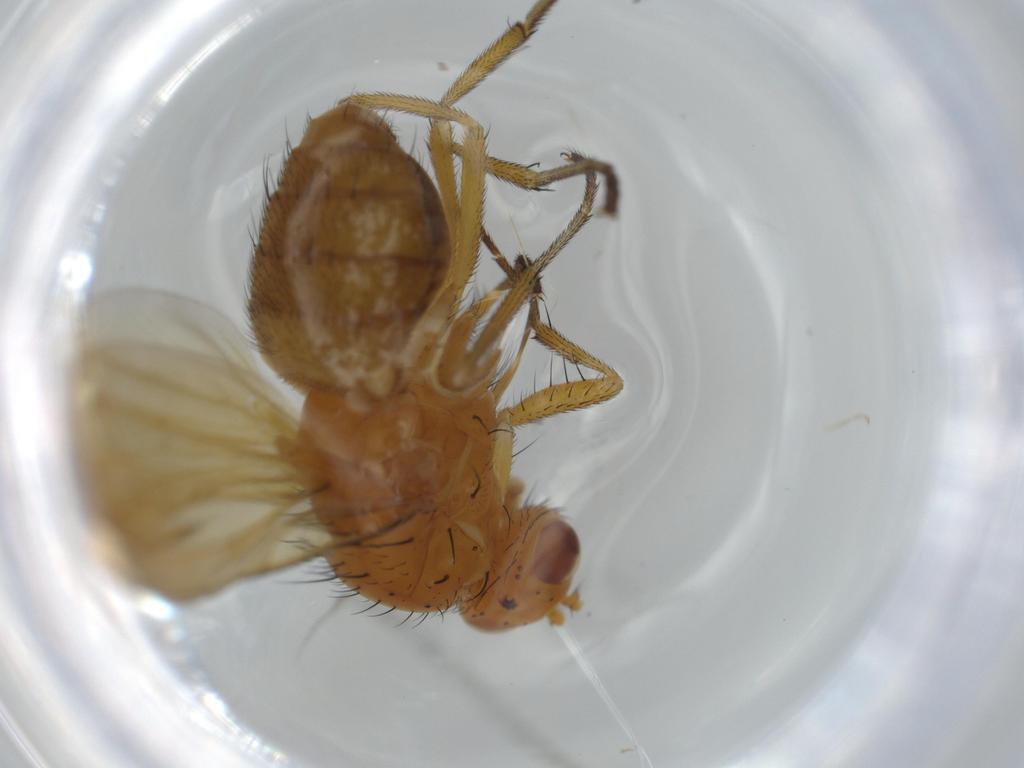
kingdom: Animalia
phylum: Arthropoda
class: Insecta
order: Diptera
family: Lauxaniidae
